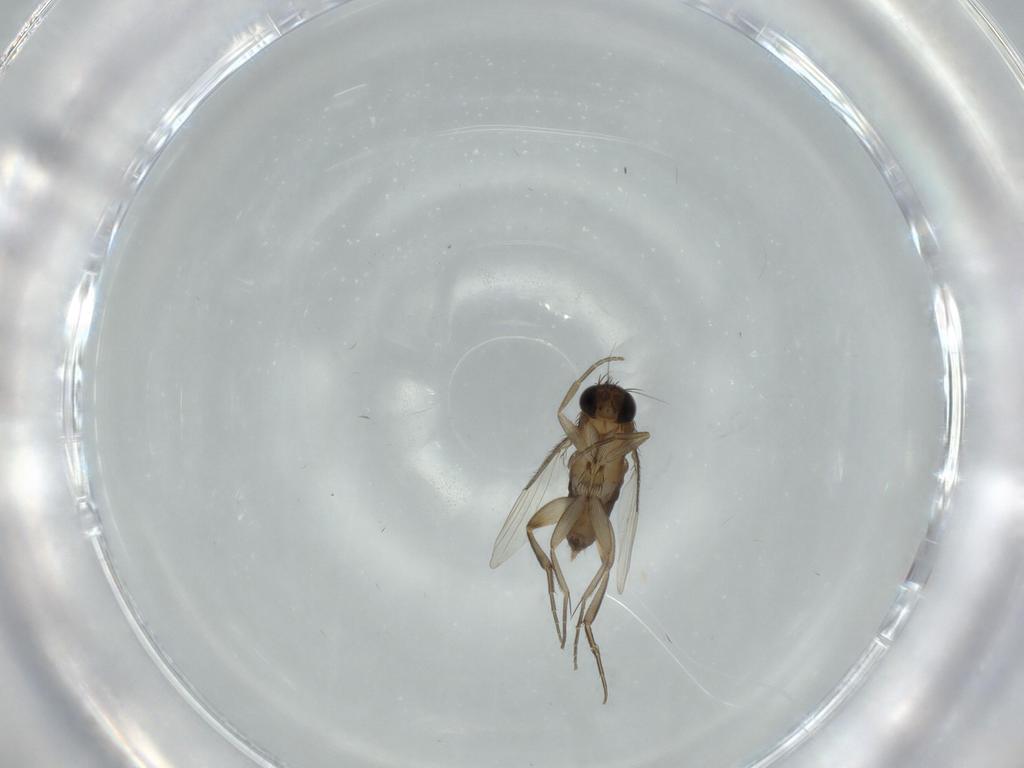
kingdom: Animalia
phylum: Arthropoda
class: Insecta
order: Diptera
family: Phoridae
